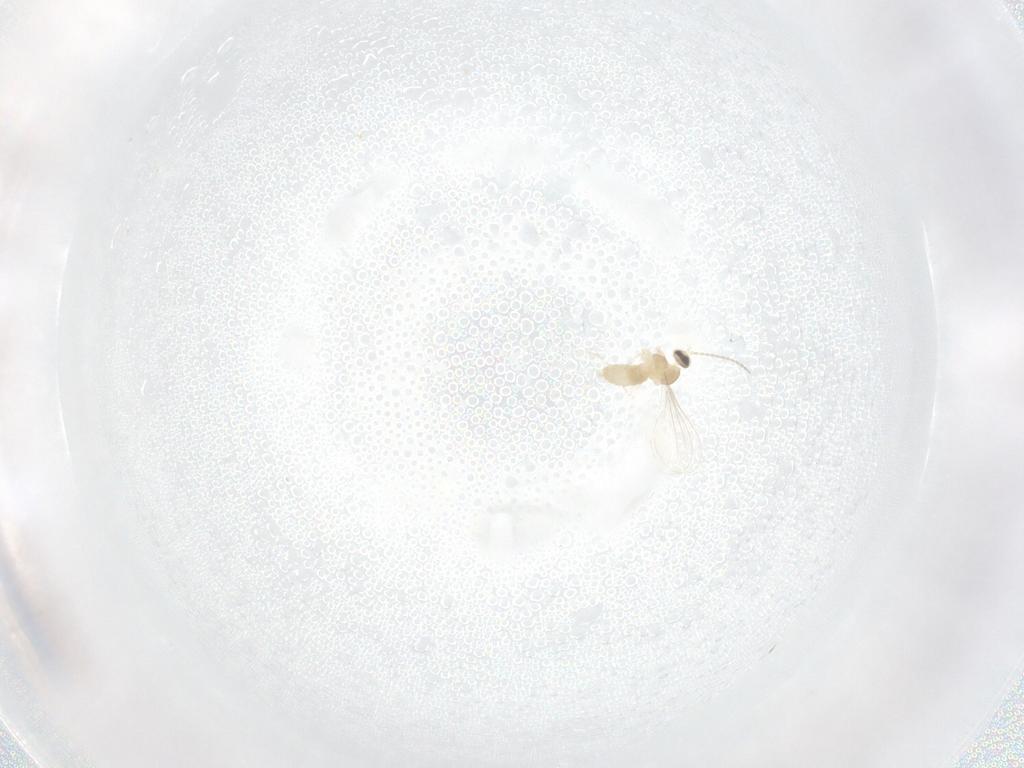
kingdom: Animalia
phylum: Arthropoda
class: Insecta
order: Diptera
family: Cecidomyiidae
